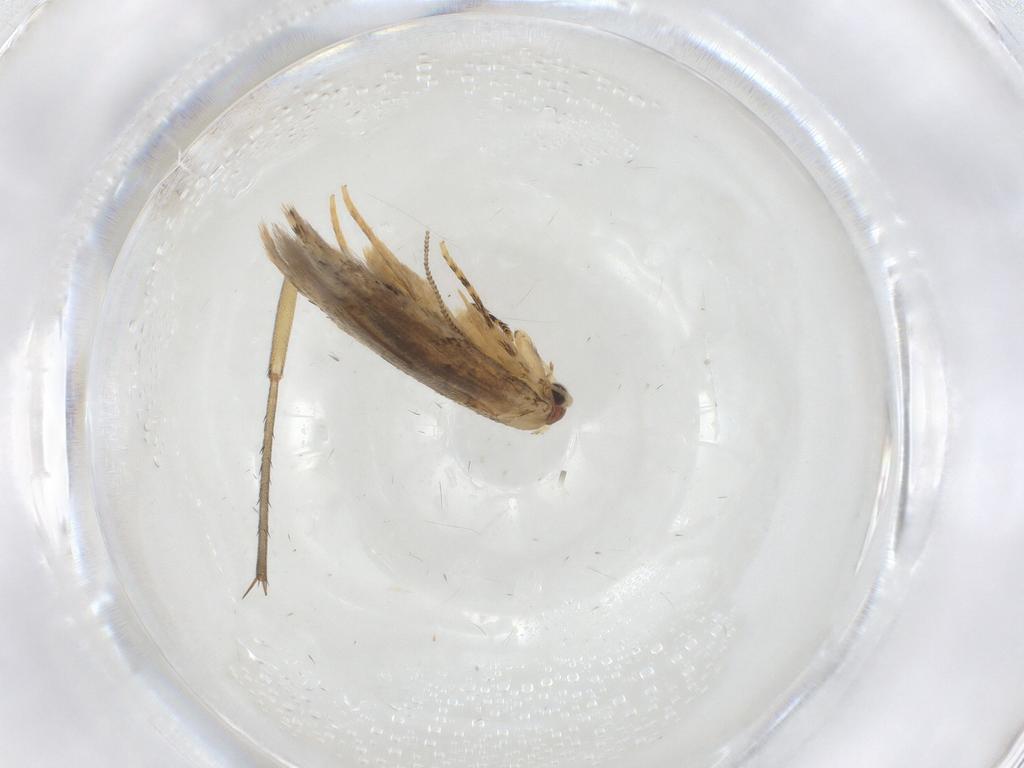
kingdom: Animalia
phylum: Arthropoda
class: Insecta
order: Lepidoptera
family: Tineidae
